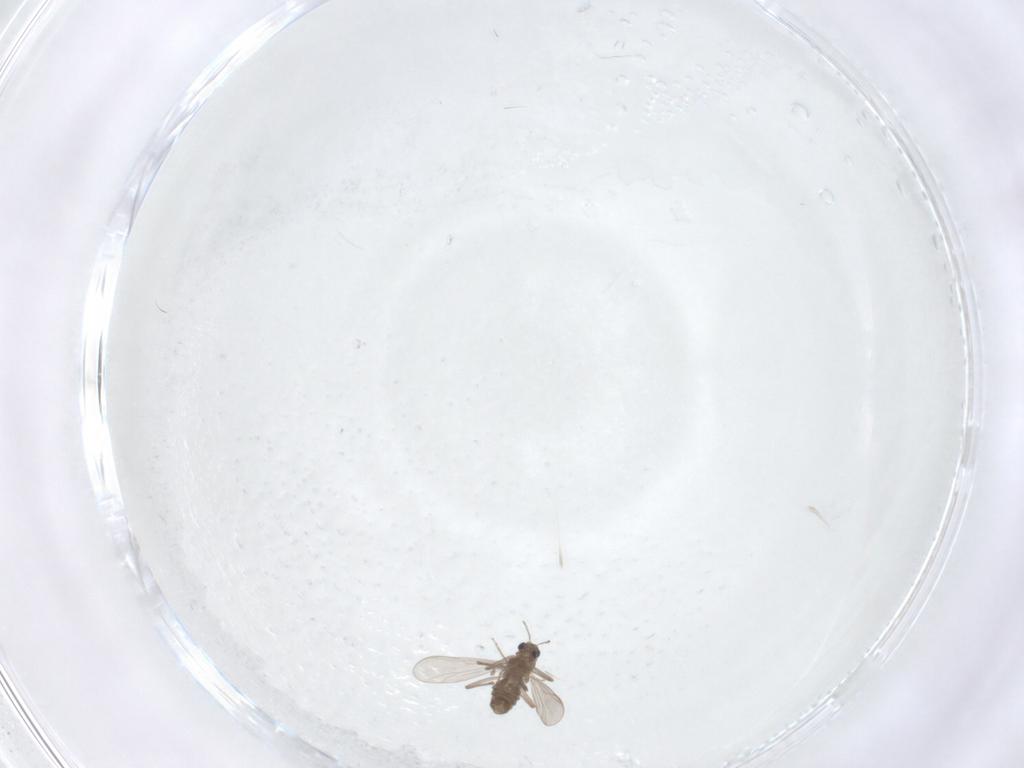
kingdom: Animalia
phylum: Arthropoda
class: Insecta
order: Diptera
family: Chironomidae
